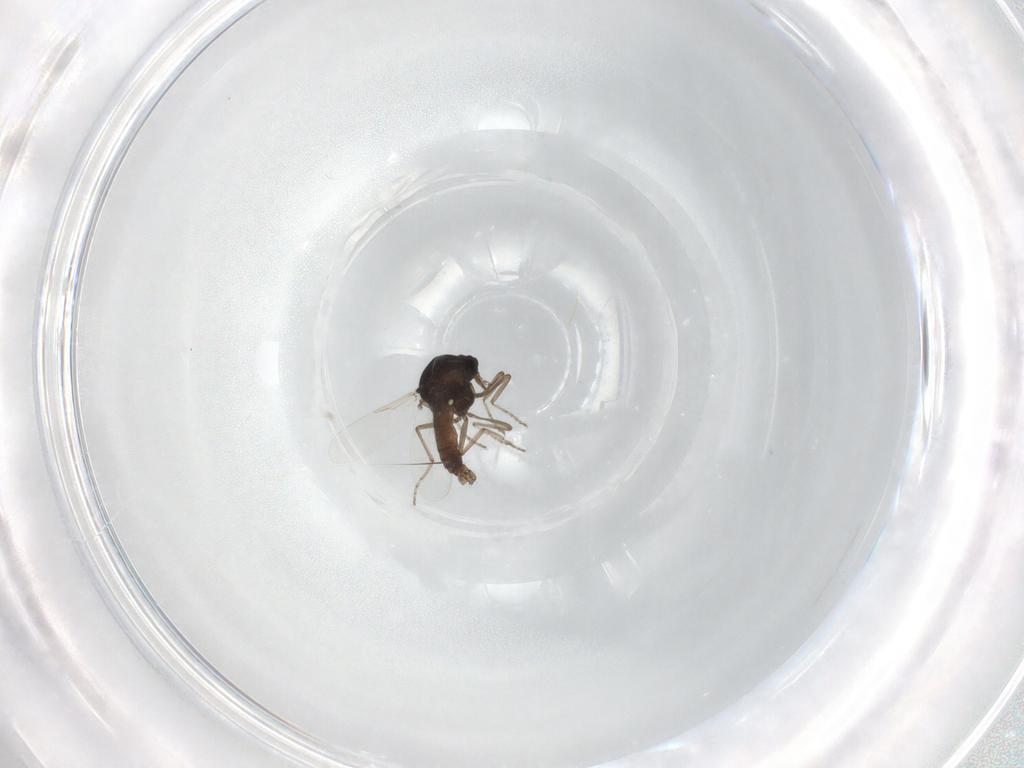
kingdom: Animalia
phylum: Arthropoda
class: Insecta
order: Diptera
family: Ceratopogonidae
